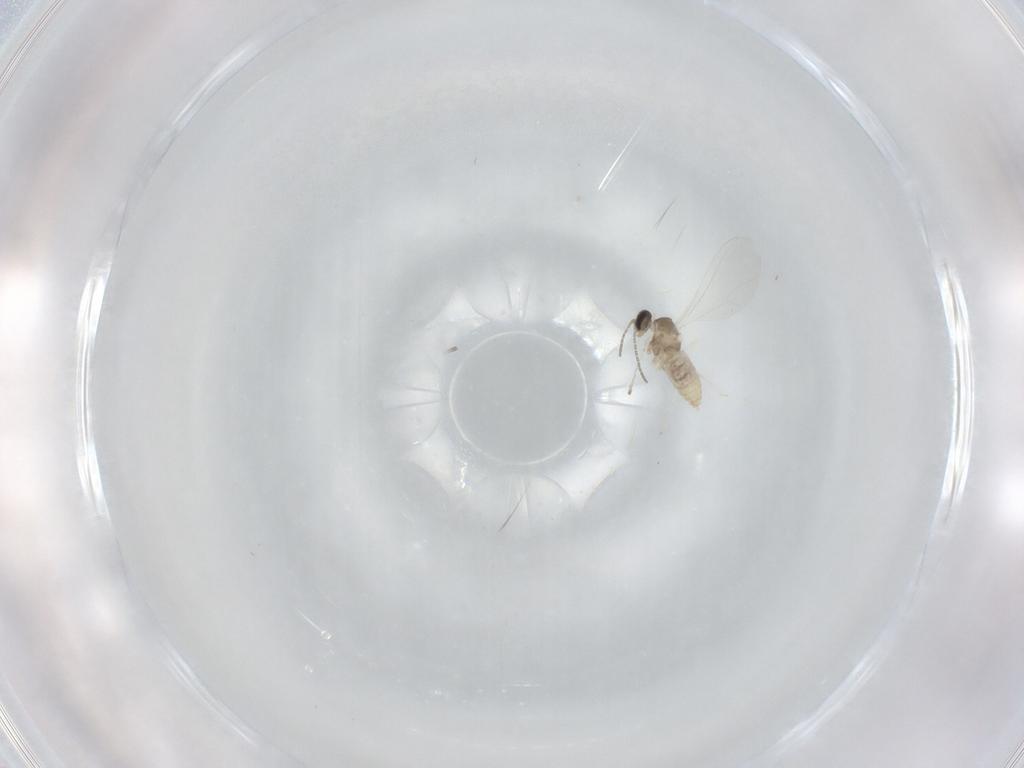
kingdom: Animalia
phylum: Arthropoda
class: Insecta
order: Diptera
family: Cecidomyiidae
